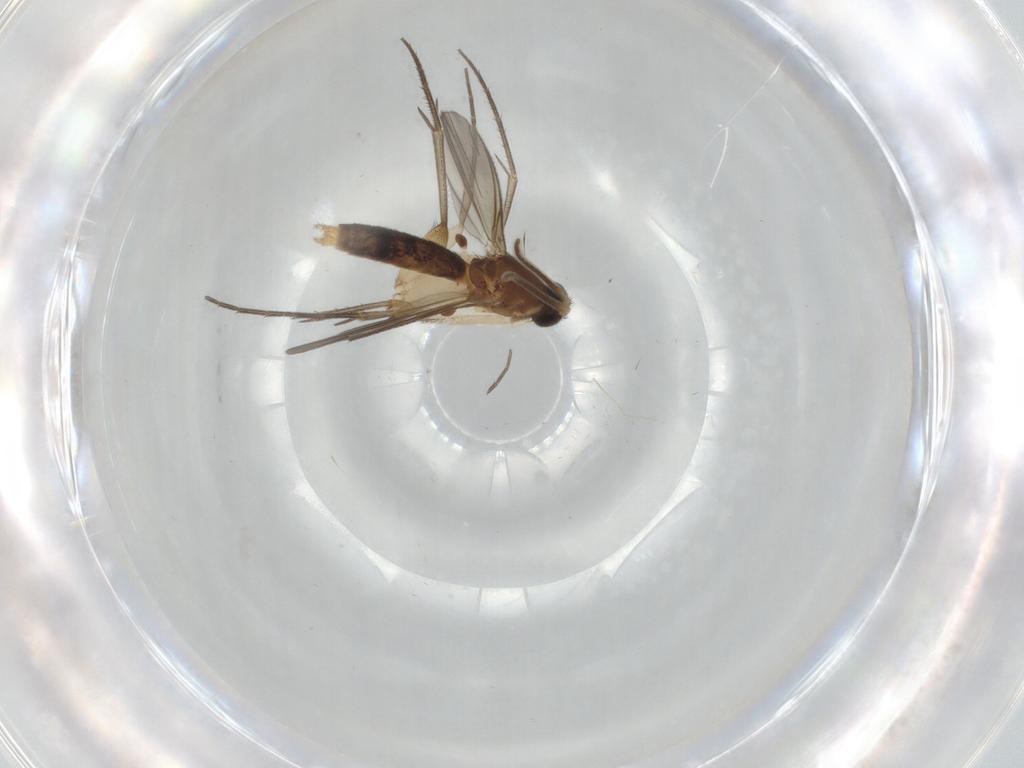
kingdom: Animalia
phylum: Arthropoda
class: Insecta
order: Diptera
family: Mycetophilidae
